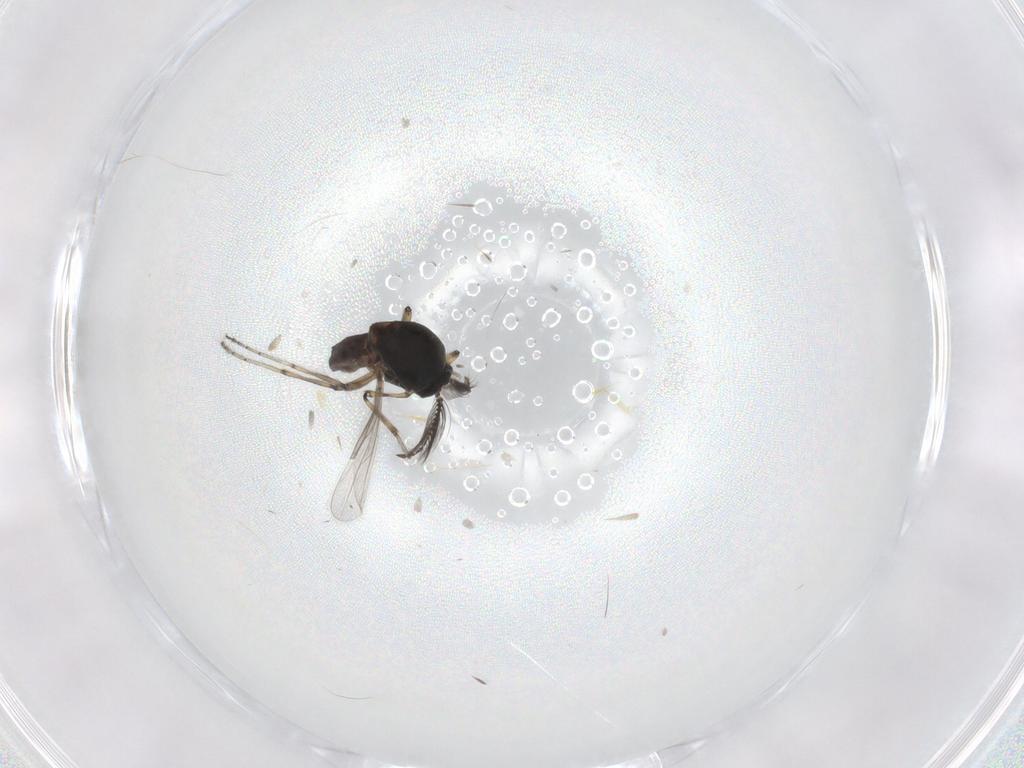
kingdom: Animalia
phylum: Arthropoda
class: Insecta
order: Diptera
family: Ceratopogonidae
